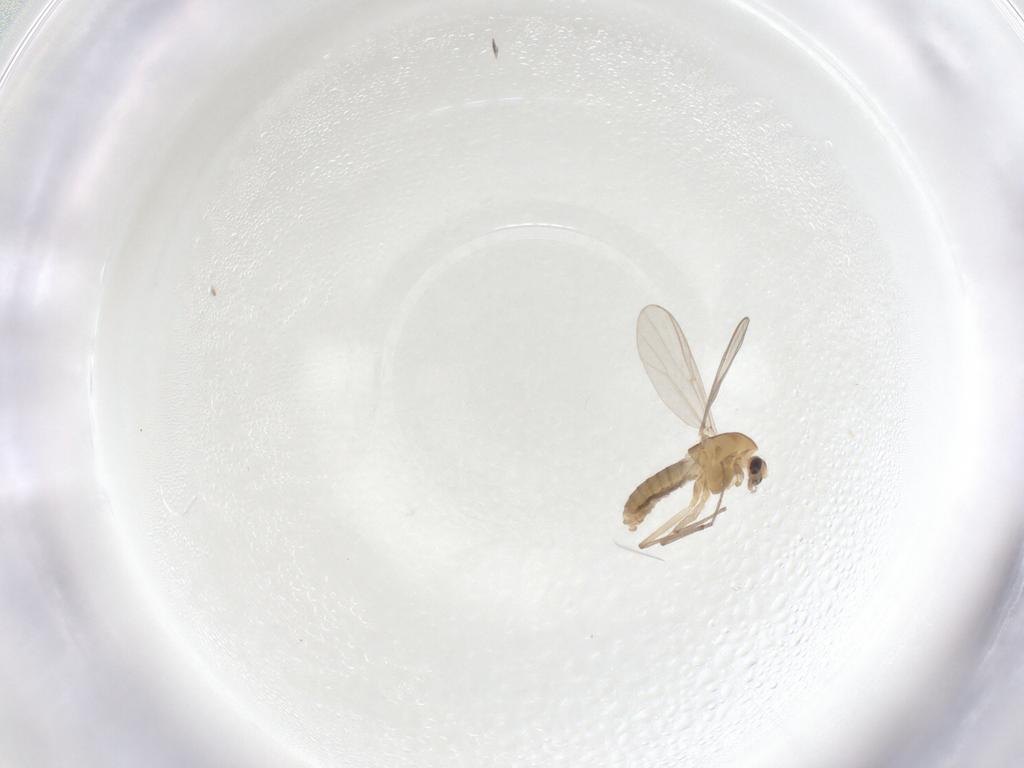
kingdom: Animalia
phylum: Arthropoda
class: Insecta
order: Diptera
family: Chironomidae
